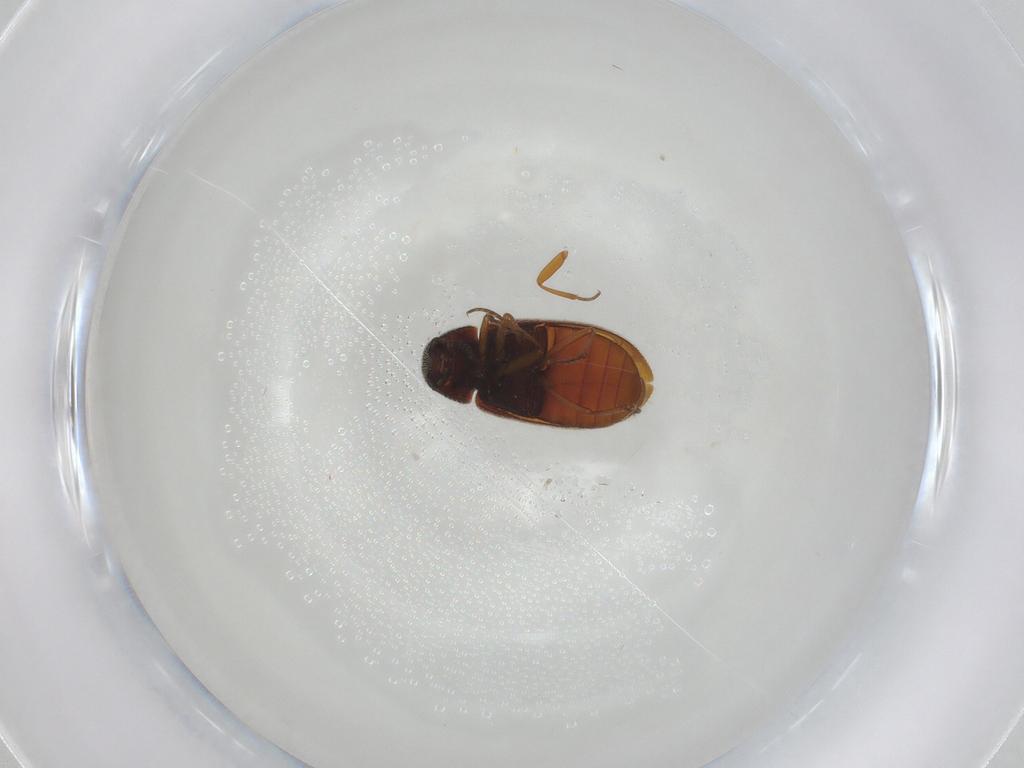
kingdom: Animalia
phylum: Arthropoda
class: Insecta
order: Coleoptera
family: Rhadalidae
